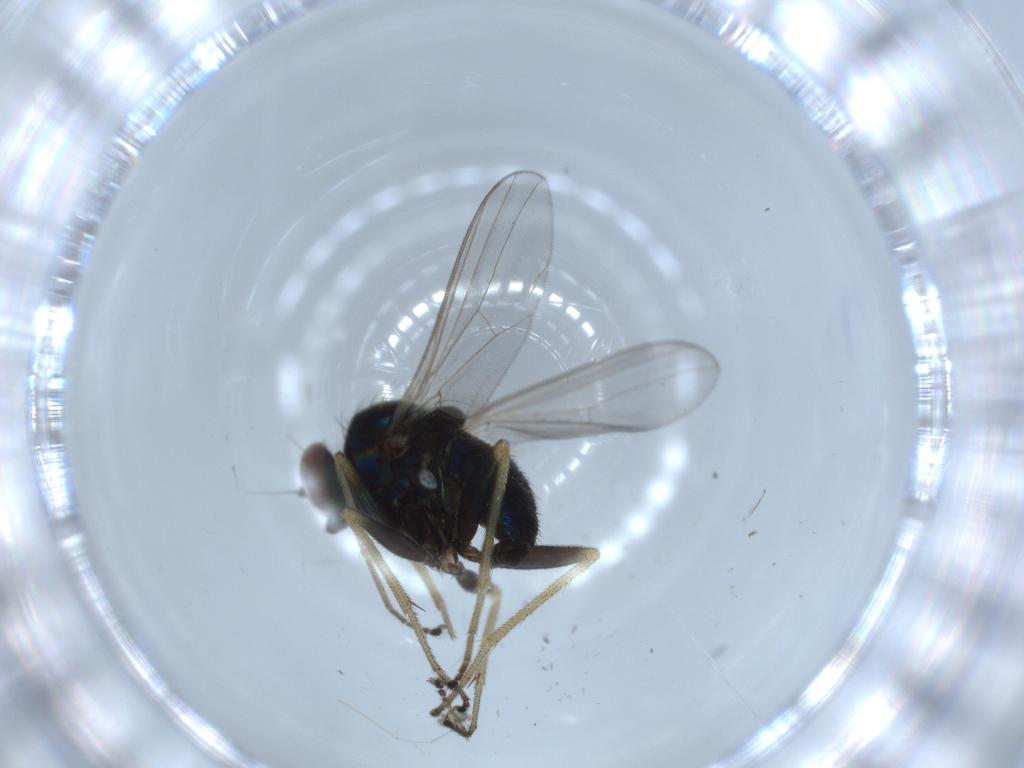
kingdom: Animalia
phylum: Arthropoda
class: Insecta
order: Diptera
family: Dolichopodidae
